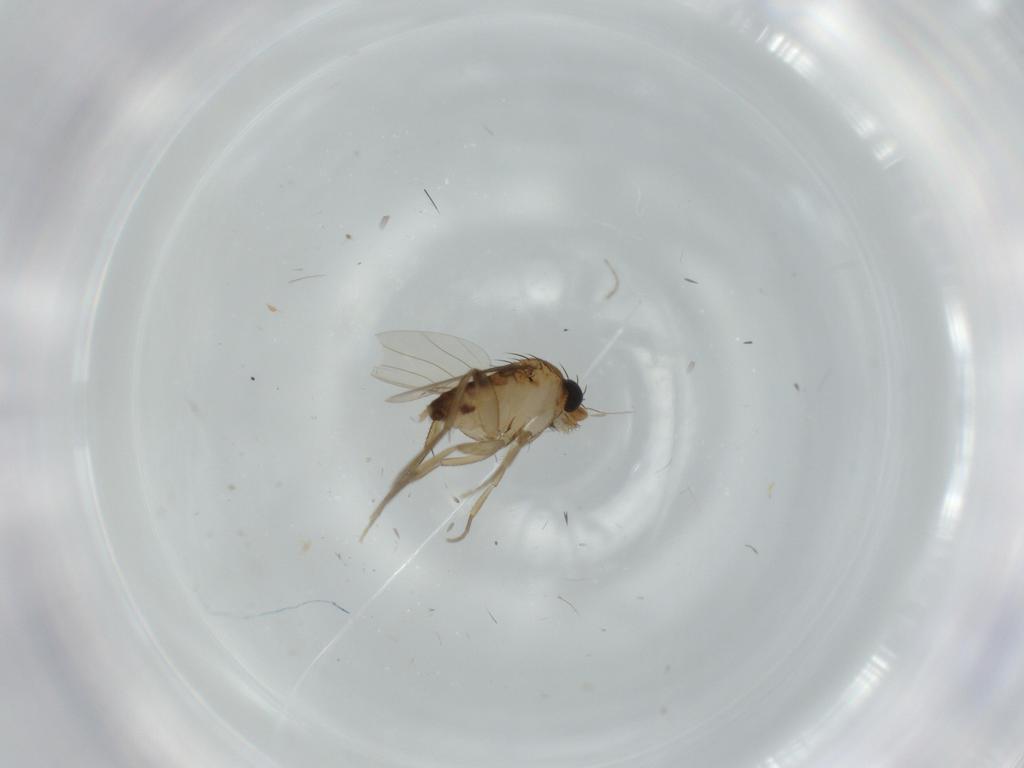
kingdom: Animalia
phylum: Arthropoda
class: Insecta
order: Diptera
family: Phoridae
